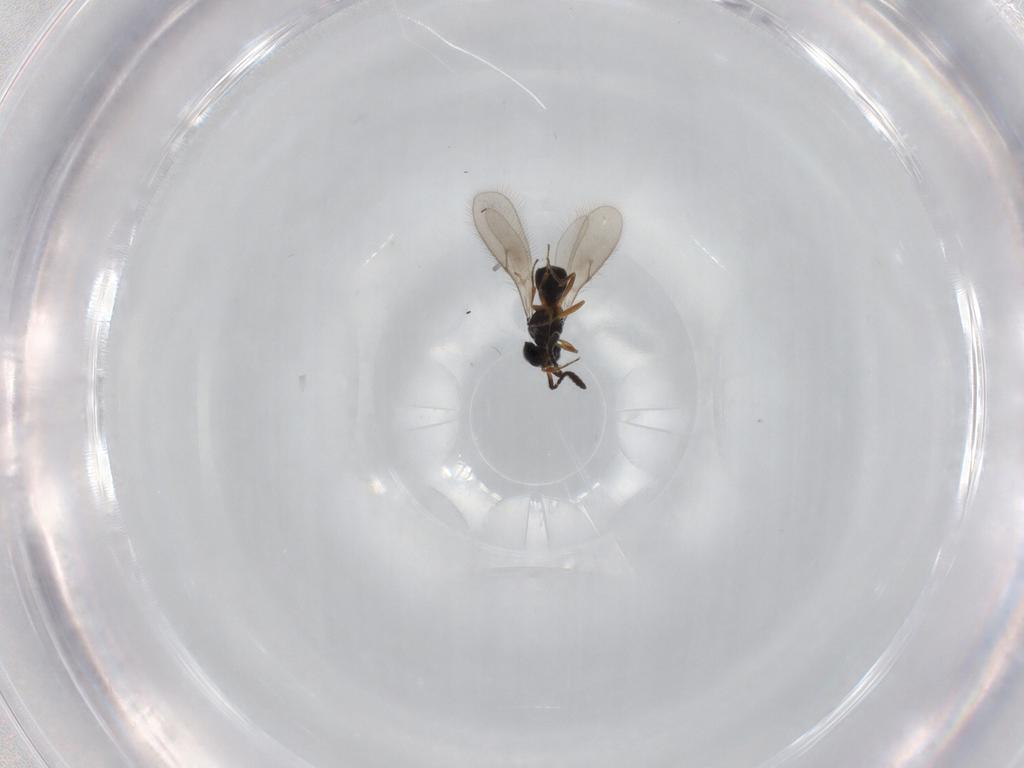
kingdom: Animalia
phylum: Arthropoda
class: Insecta
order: Hymenoptera
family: Scelionidae
